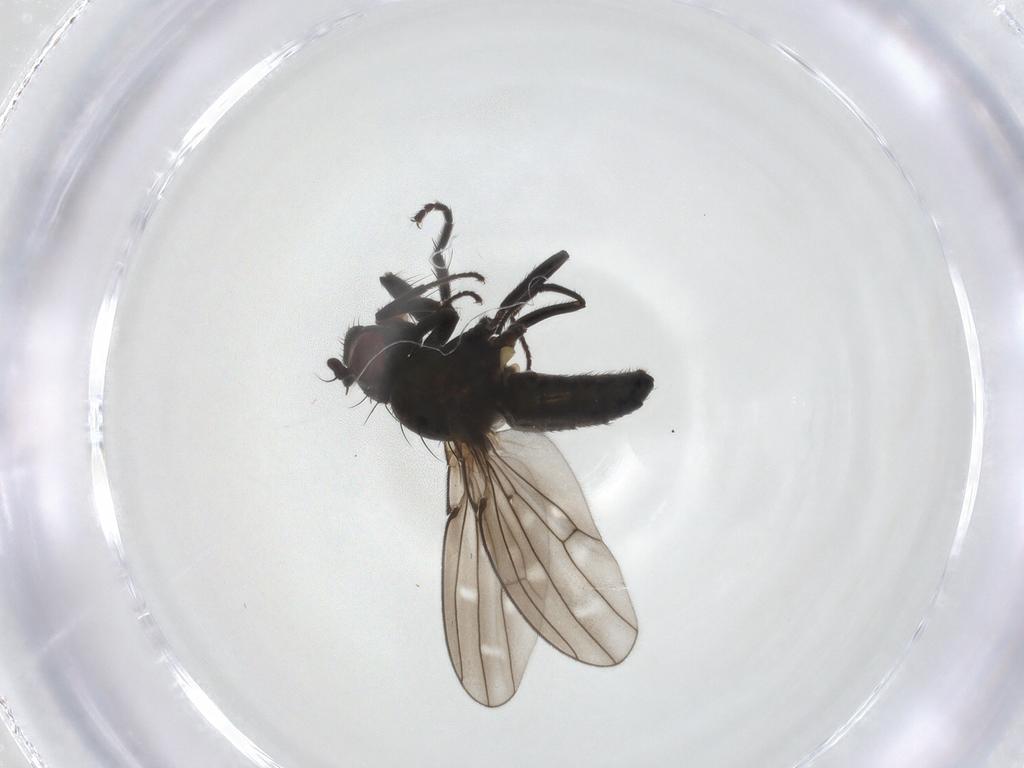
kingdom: Animalia
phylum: Arthropoda
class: Insecta
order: Diptera
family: Ephydridae
